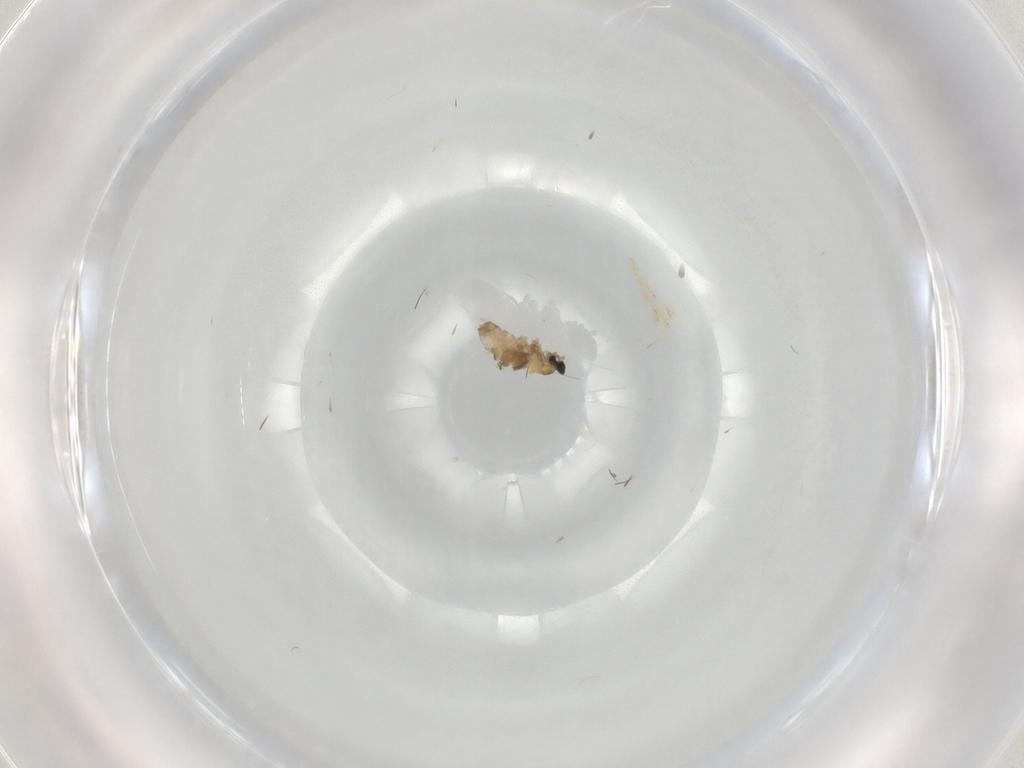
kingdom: Animalia
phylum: Arthropoda
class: Insecta
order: Diptera
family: Cecidomyiidae
